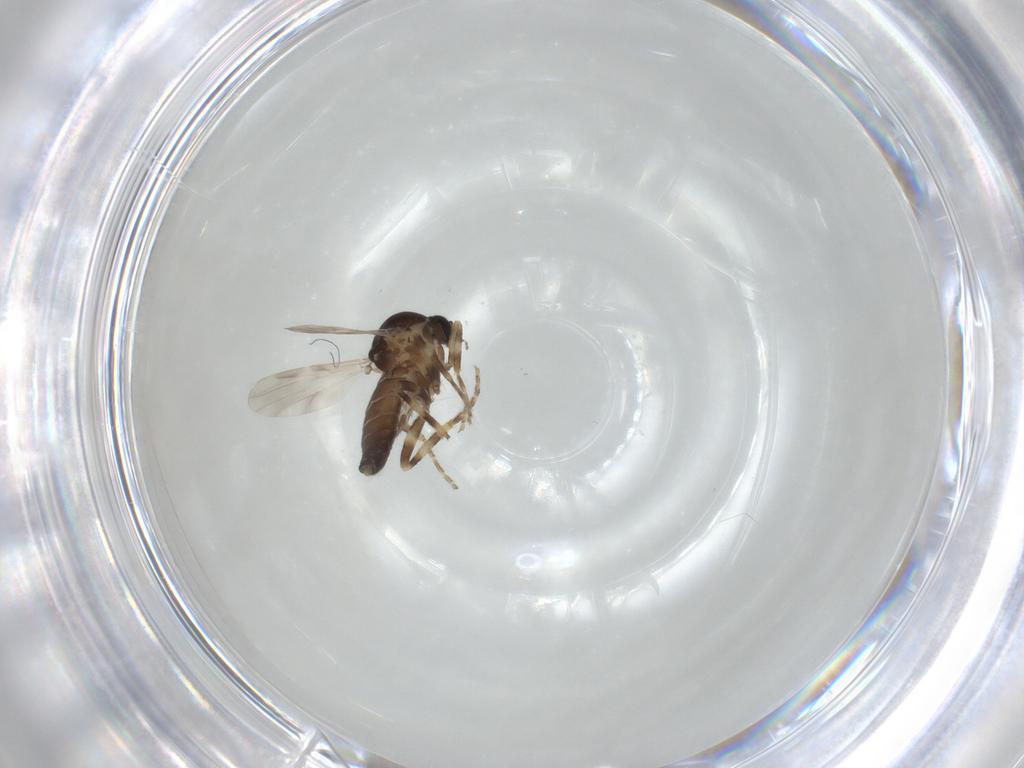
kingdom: Animalia
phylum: Arthropoda
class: Insecta
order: Diptera
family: Ceratopogonidae
